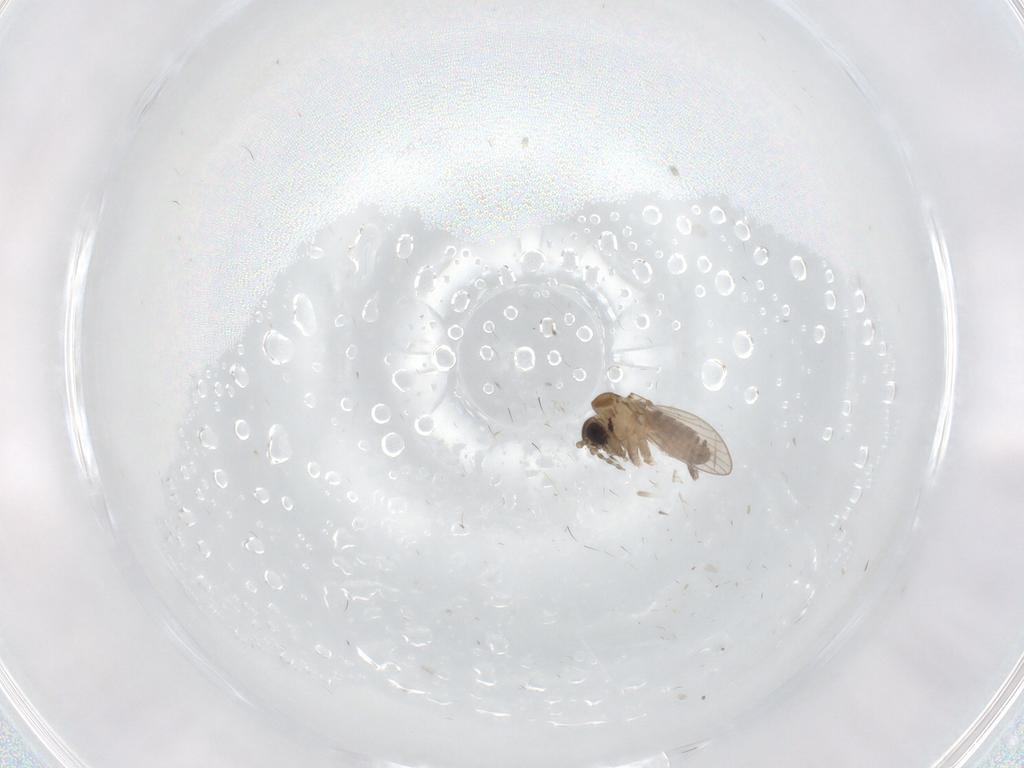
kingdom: Animalia
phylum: Arthropoda
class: Insecta
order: Diptera
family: Psychodidae
